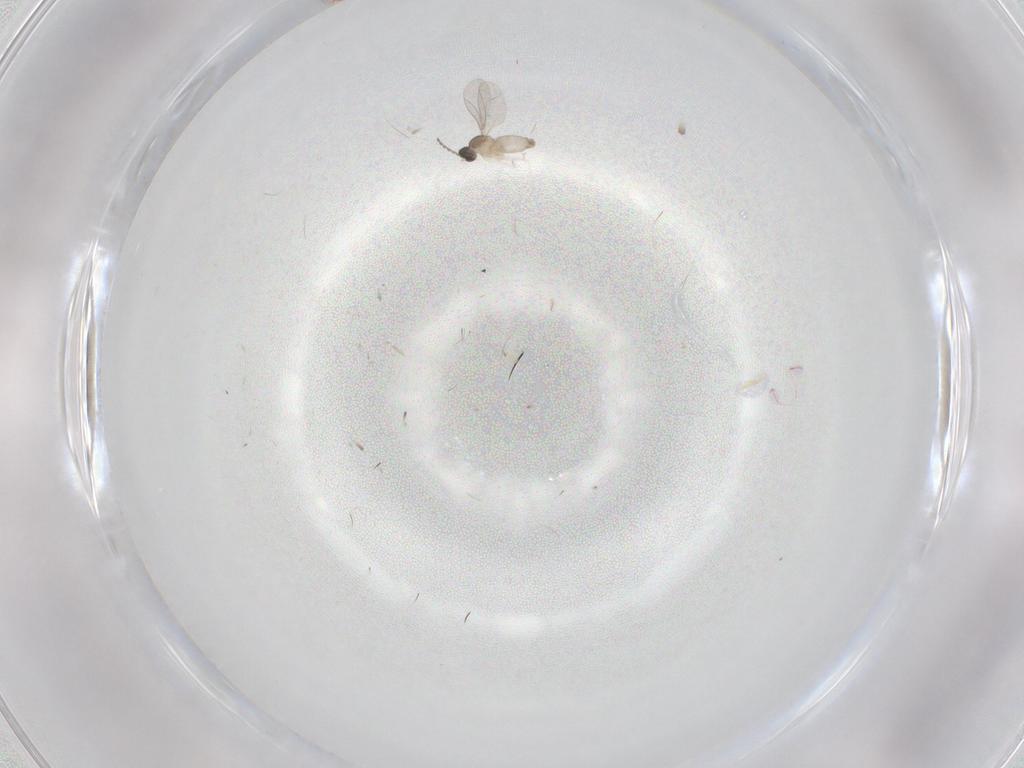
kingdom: Animalia
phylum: Arthropoda
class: Insecta
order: Diptera
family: Cecidomyiidae
